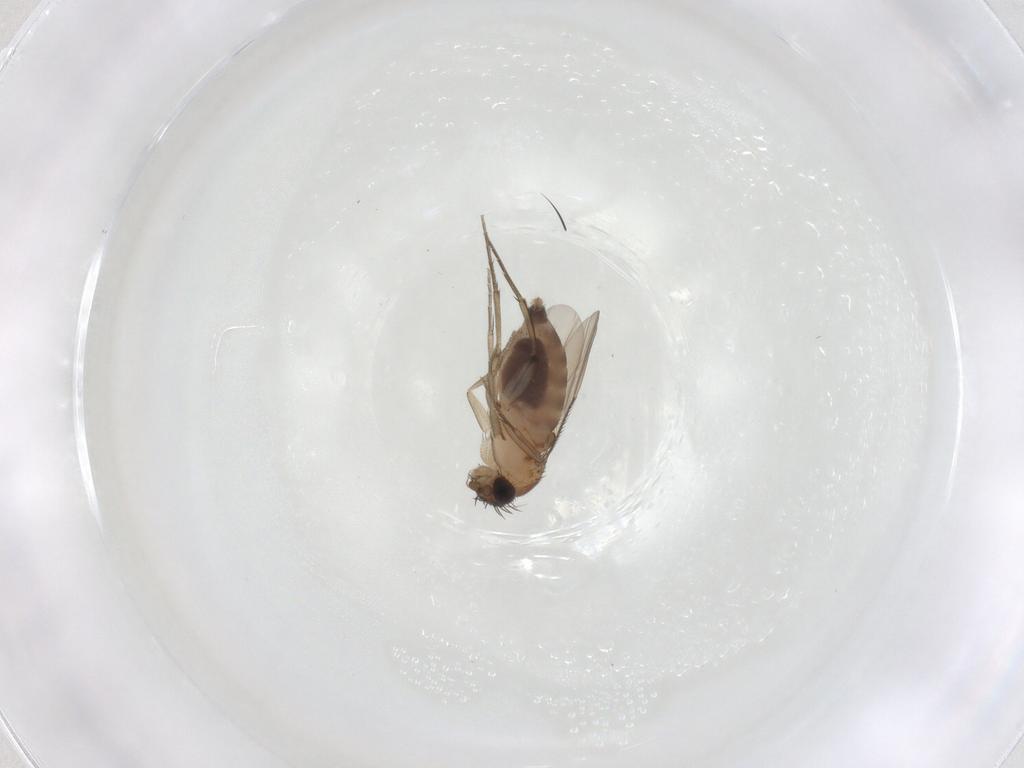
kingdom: Animalia
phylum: Arthropoda
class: Insecta
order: Diptera
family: Phoridae
